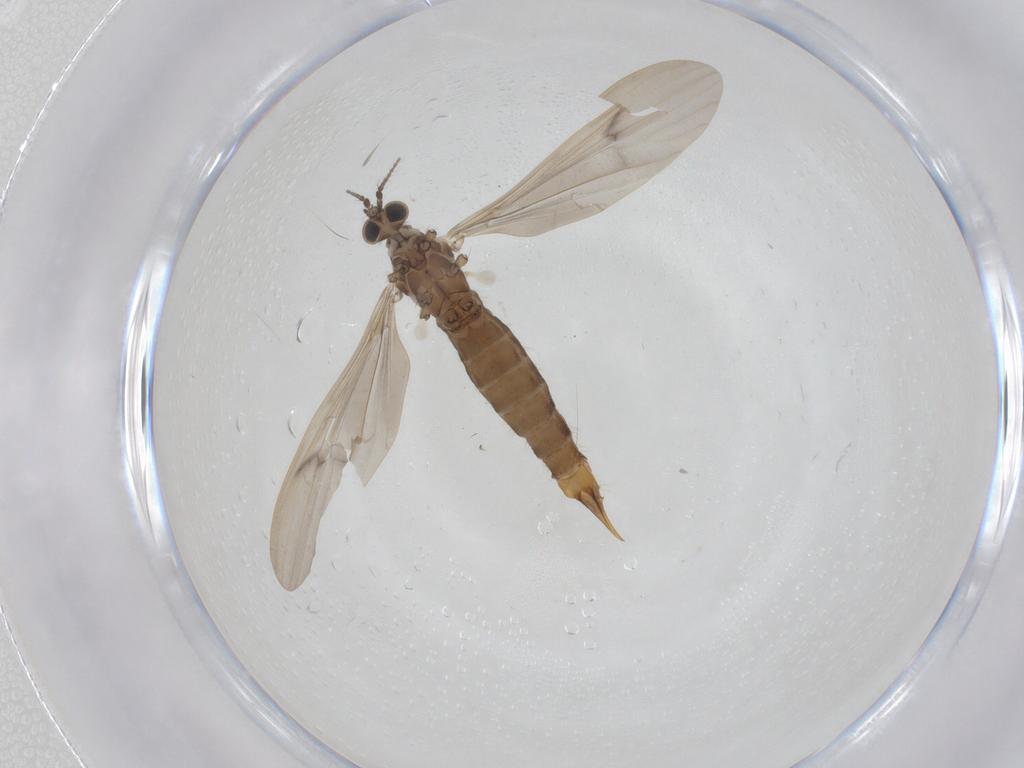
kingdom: Animalia
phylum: Arthropoda
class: Insecta
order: Diptera
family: Limoniidae
